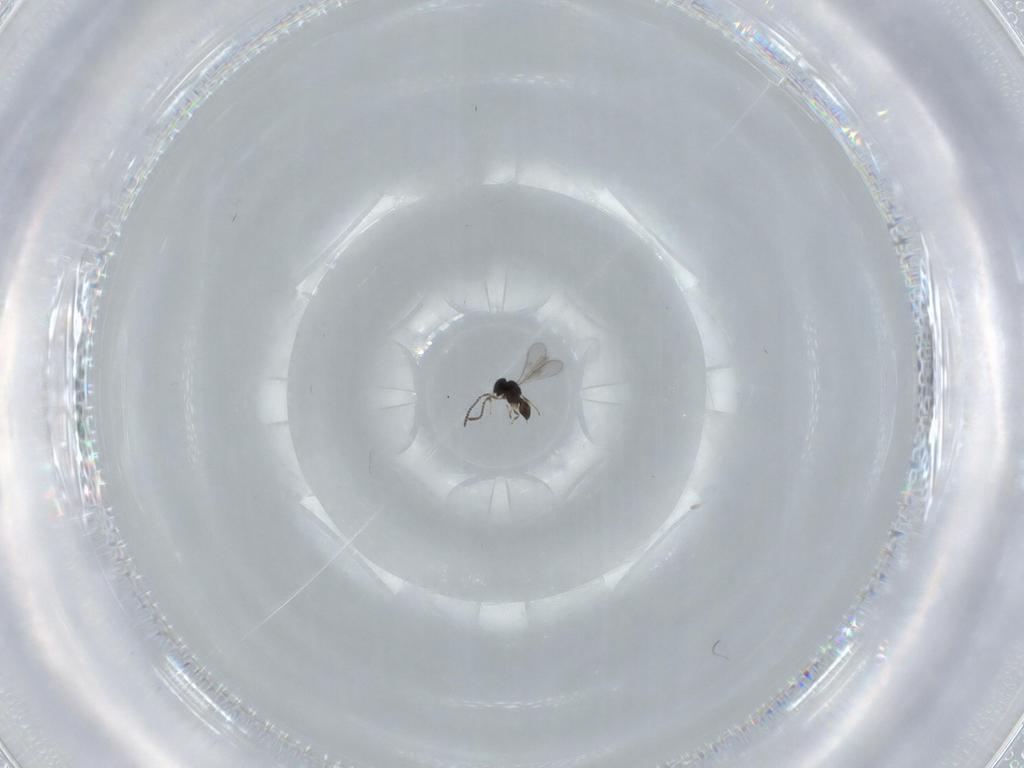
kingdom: Animalia
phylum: Arthropoda
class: Insecta
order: Hymenoptera
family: Scelionidae
